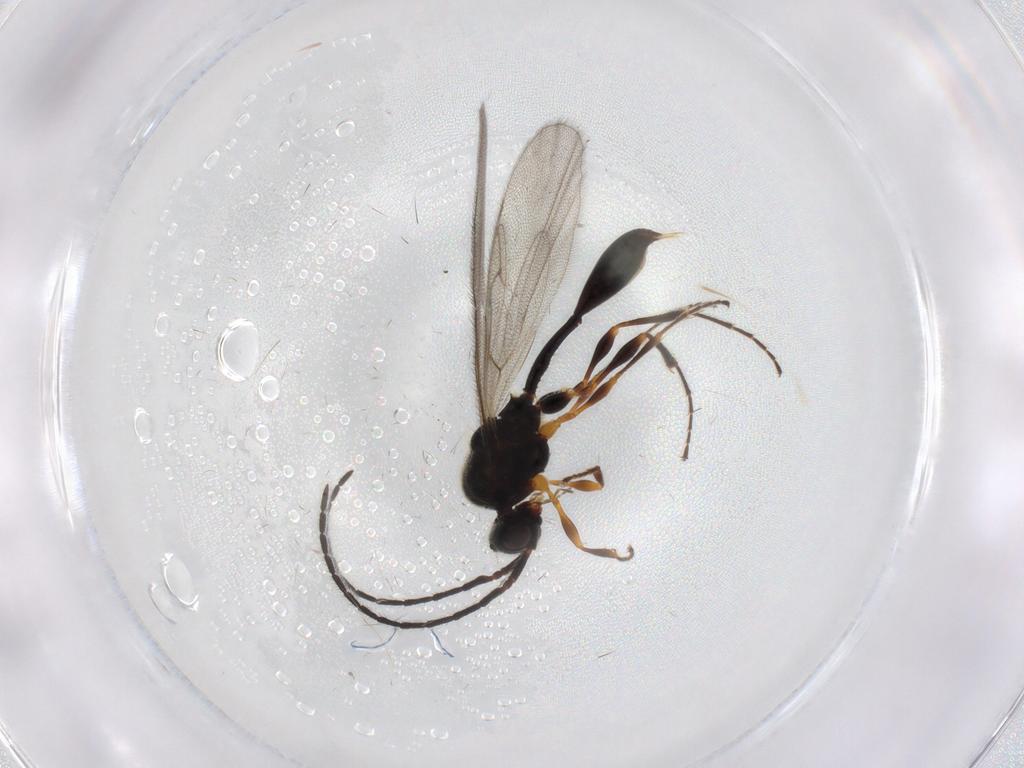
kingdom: Animalia
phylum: Arthropoda
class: Insecta
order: Hymenoptera
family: Diapriidae
